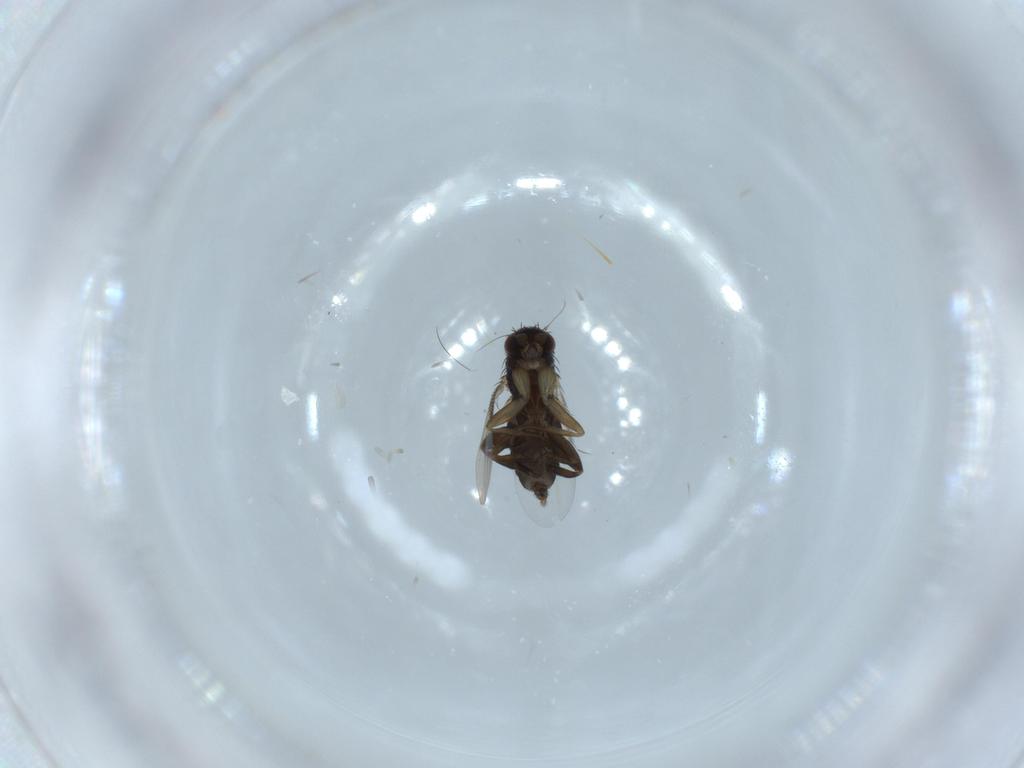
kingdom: Animalia
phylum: Arthropoda
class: Insecta
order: Diptera
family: Phoridae
